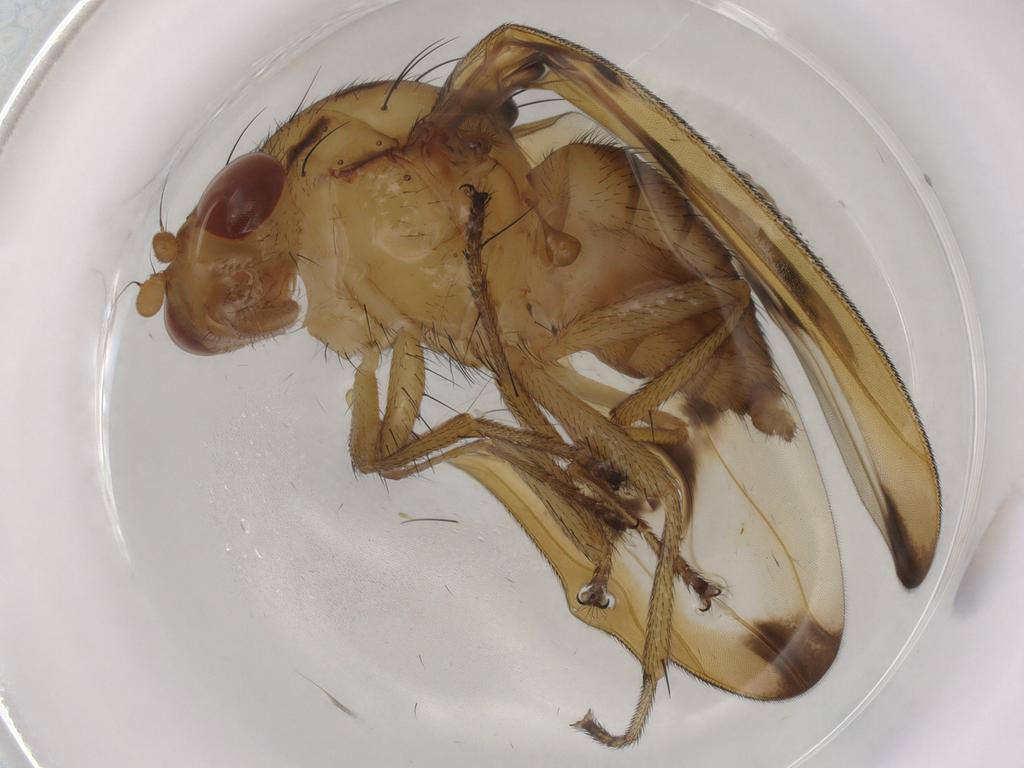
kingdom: Animalia
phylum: Arthropoda
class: Insecta
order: Diptera
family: Lauxaniidae
